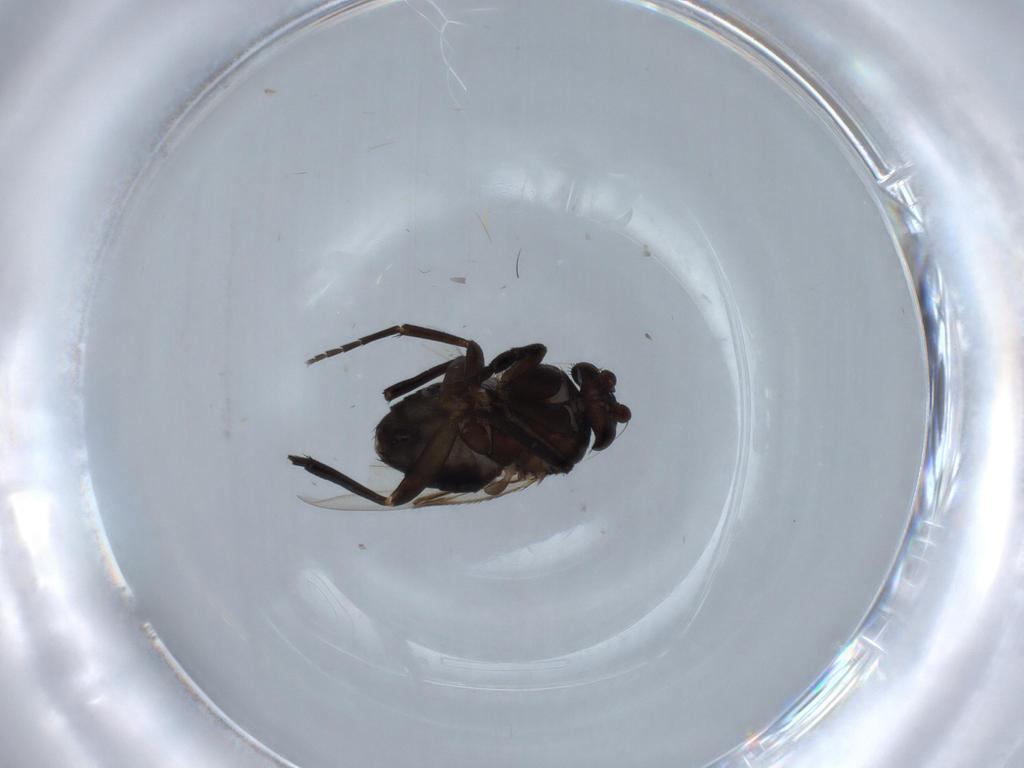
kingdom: Animalia
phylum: Arthropoda
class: Insecta
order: Diptera
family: Phoridae
